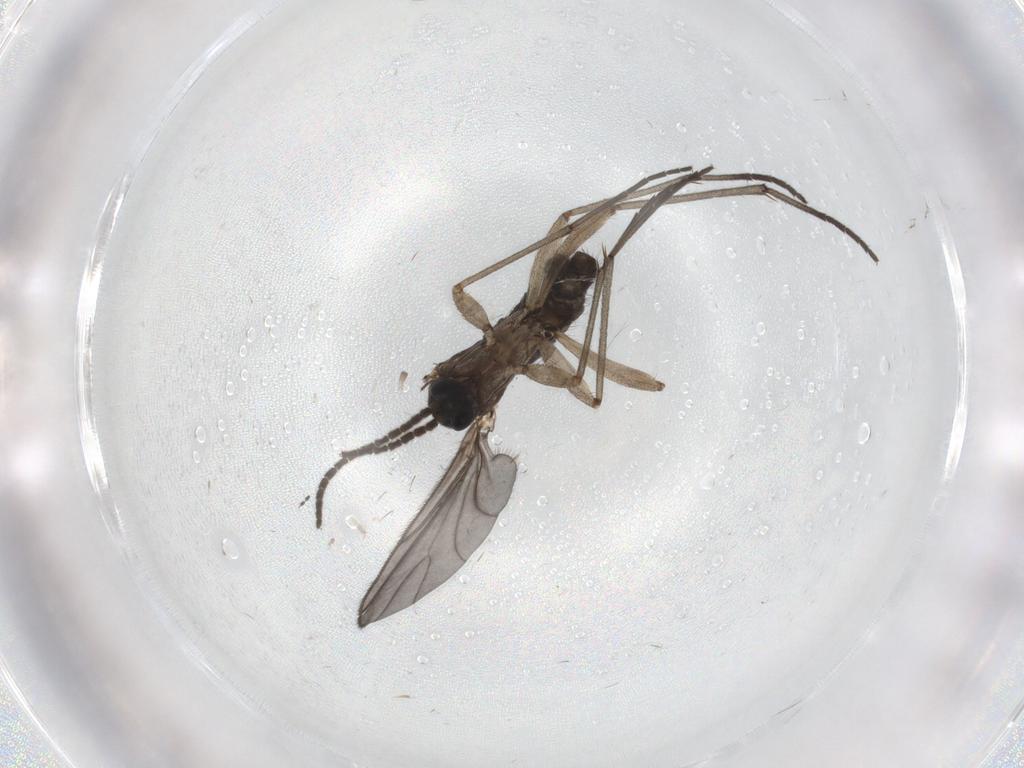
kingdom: Animalia
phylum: Arthropoda
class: Insecta
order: Diptera
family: Sciaridae
